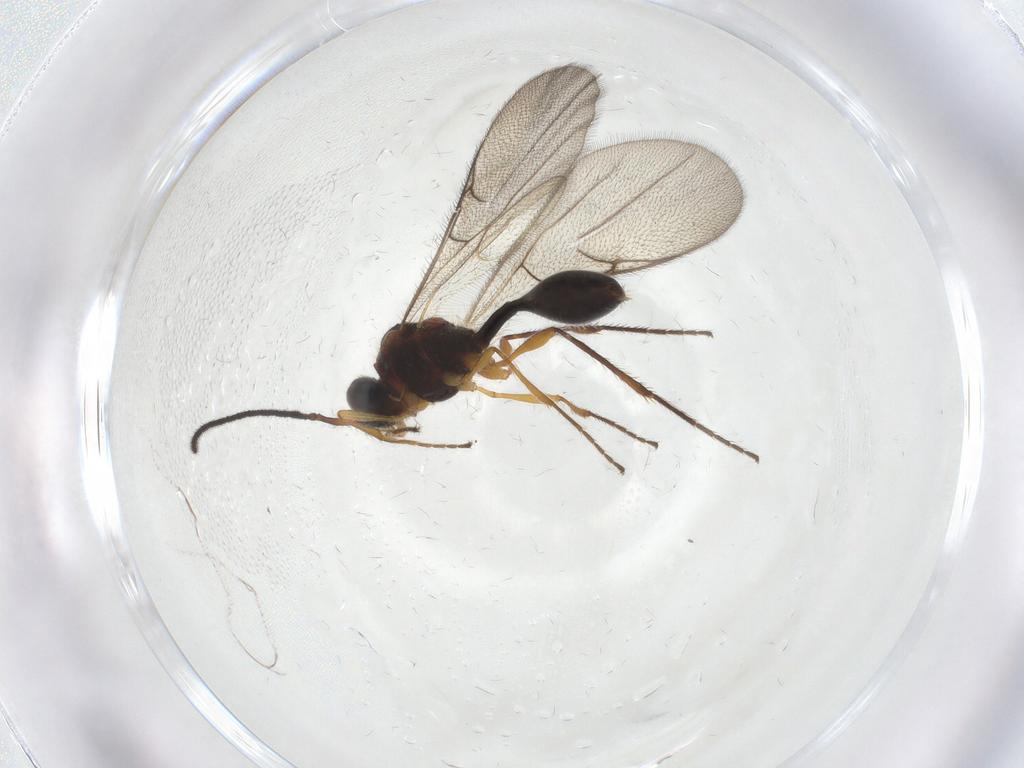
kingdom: Animalia
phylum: Arthropoda
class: Insecta
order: Hymenoptera
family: Diapriidae
